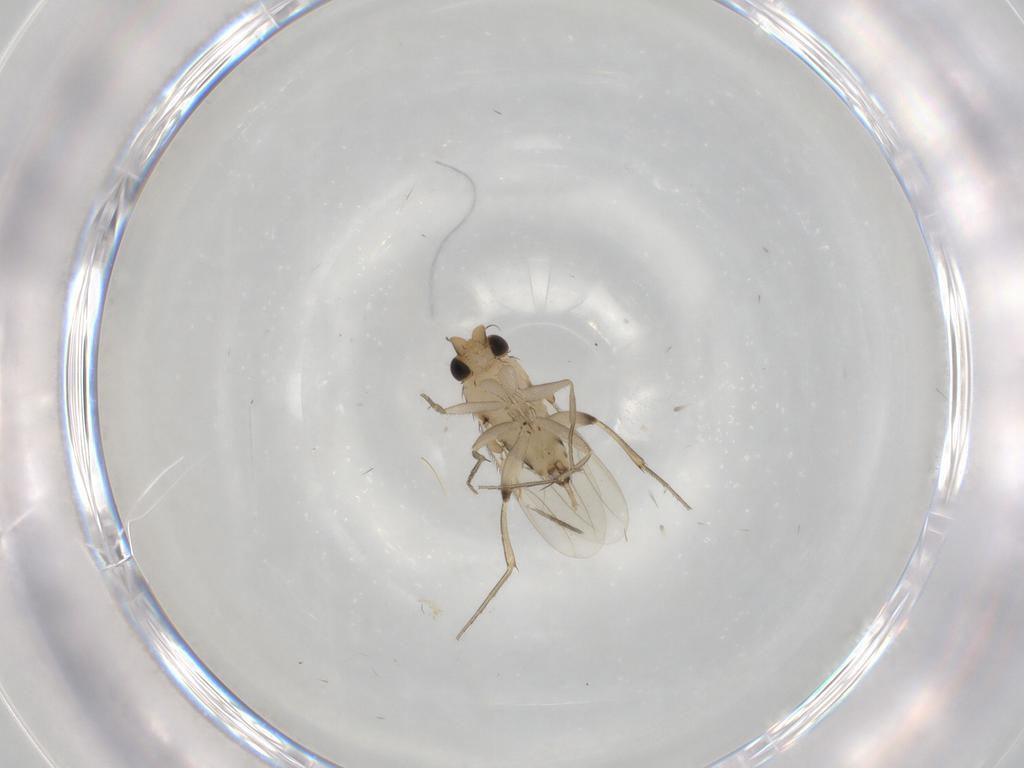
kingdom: Animalia
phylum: Arthropoda
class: Insecta
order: Diptera
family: Phoridae
